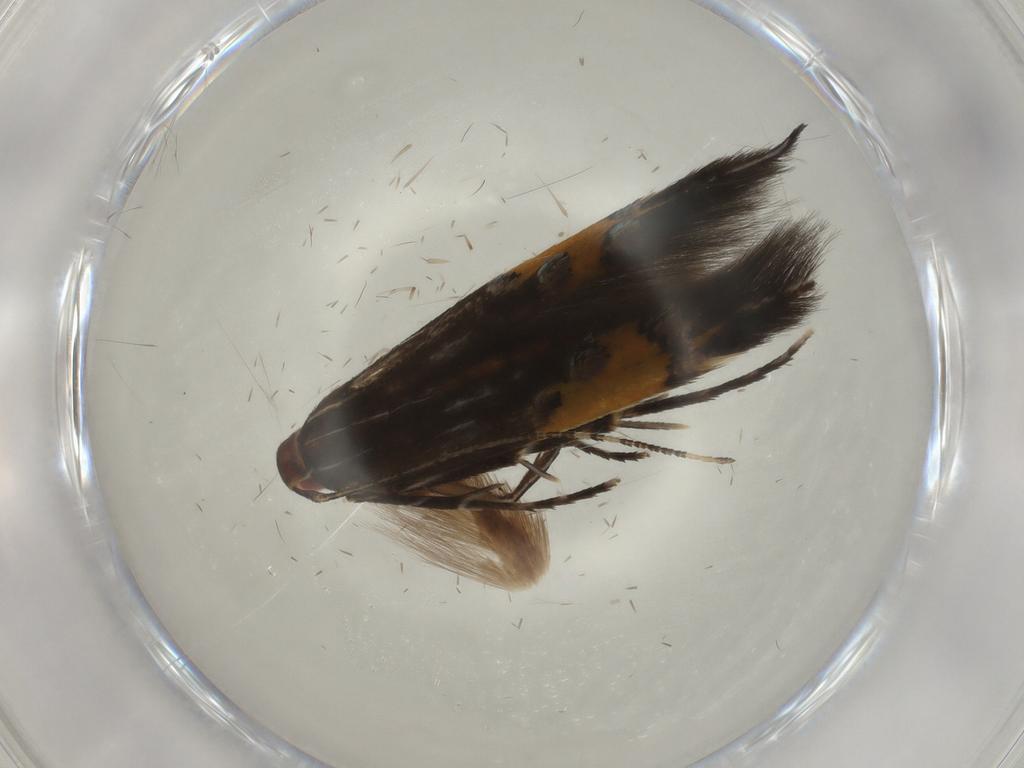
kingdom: Animalia
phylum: Arthropoda
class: Insecta
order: Lepidoptera
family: Cosmopterigidae
